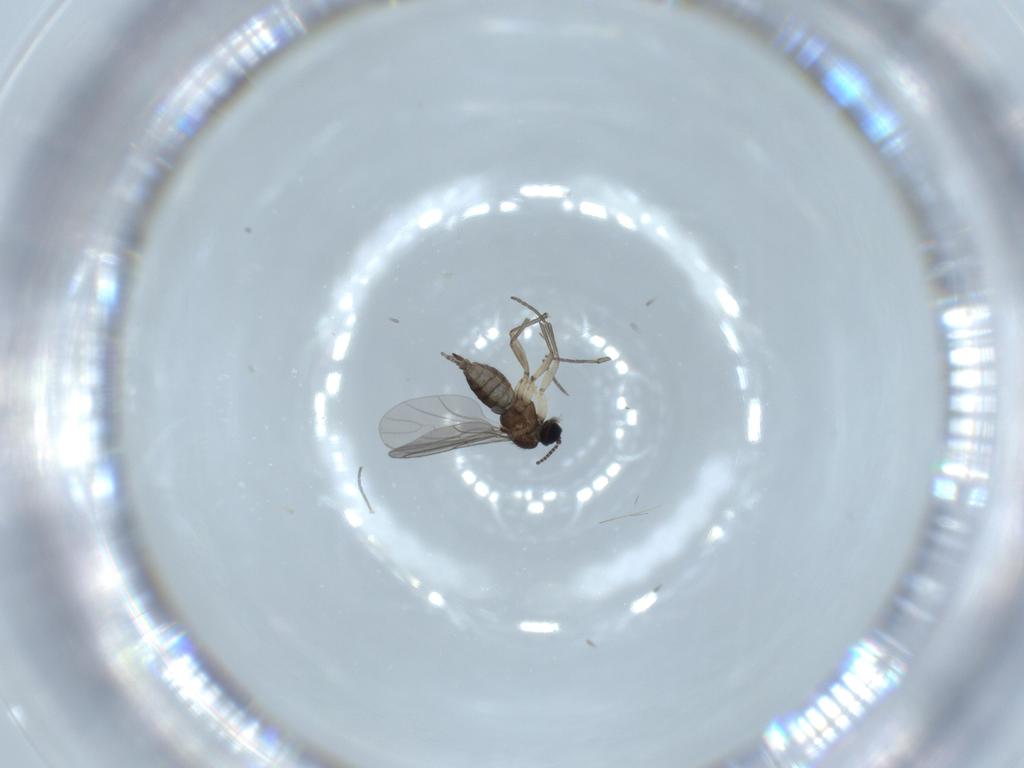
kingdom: Animalia
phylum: Arthropoda
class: Insecta
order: Diptera
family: Sciaridae
